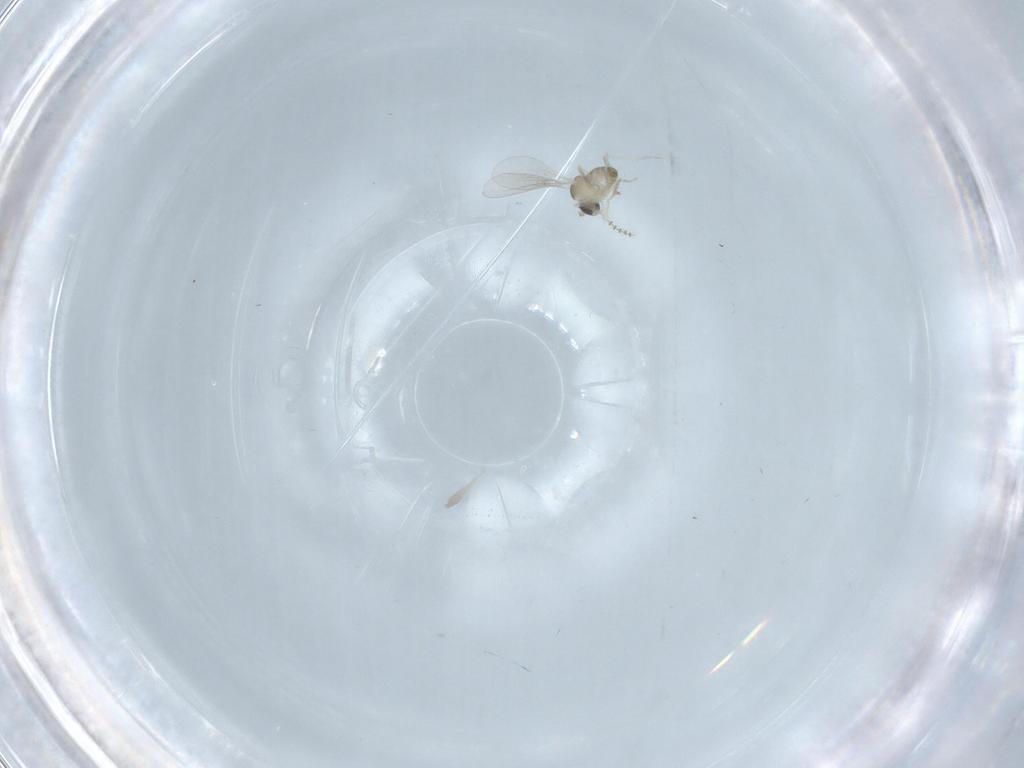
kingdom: Animalia
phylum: Arthropoda
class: Insecta
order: Diptera
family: Cecidomyiidae
